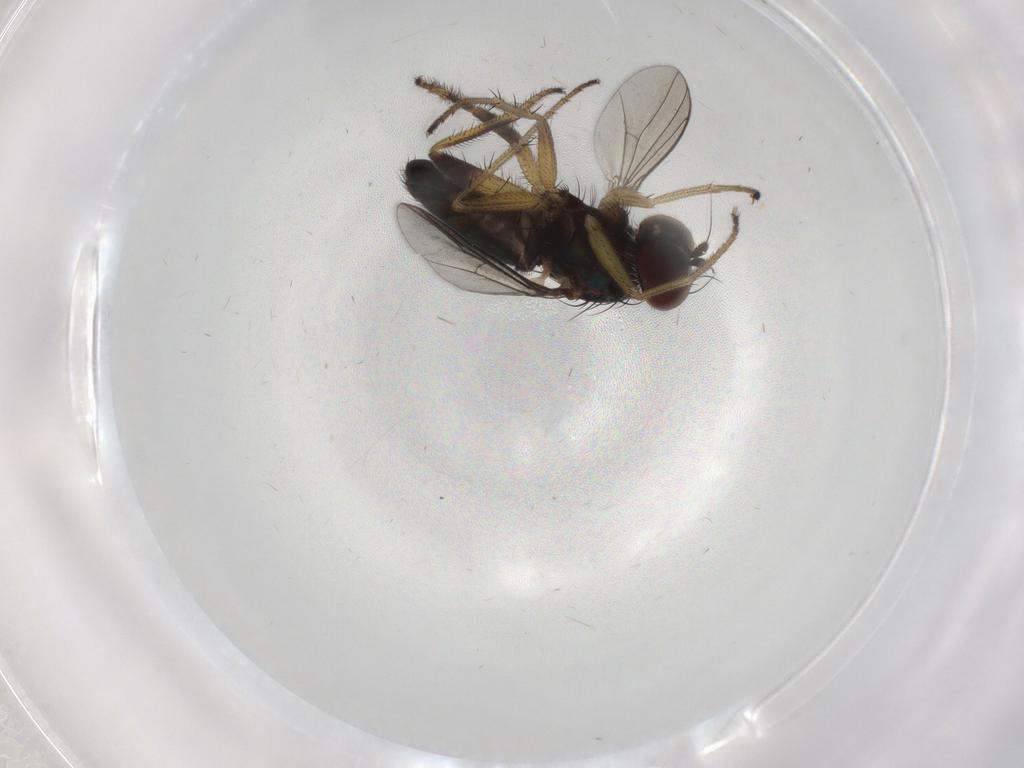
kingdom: Animalia
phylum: Arthropoda
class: Insecta
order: Diptera
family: Dolichopodidae
